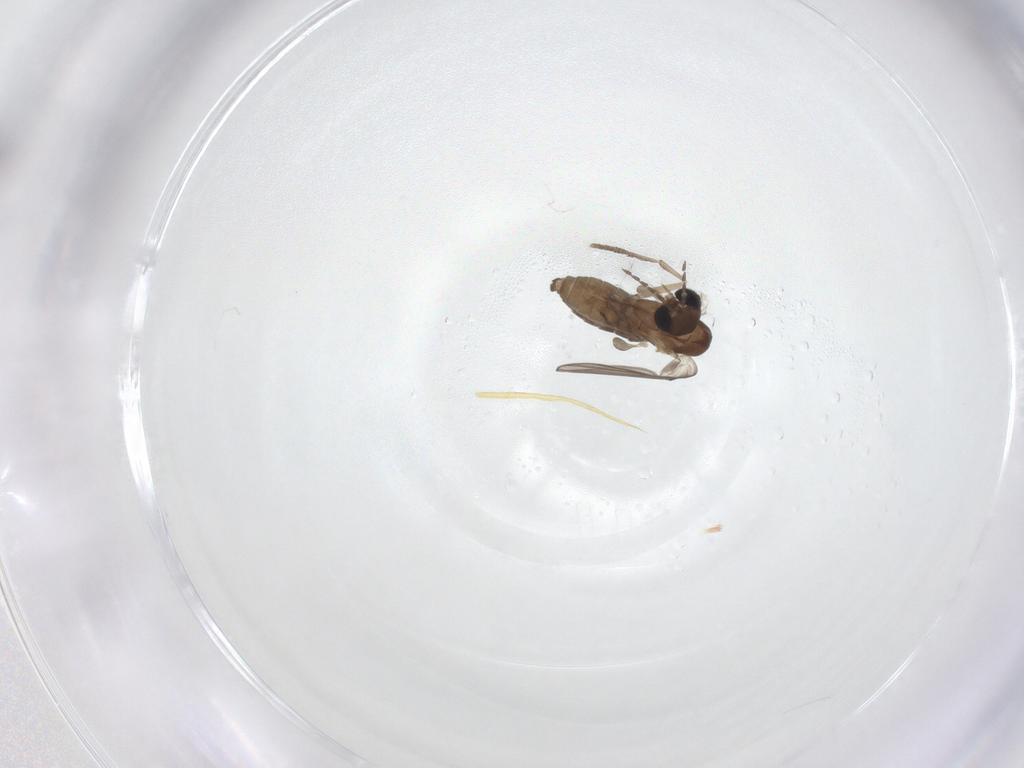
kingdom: Animalia
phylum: Arthropoda
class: Insecta
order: Diptera
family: Psychodidae
